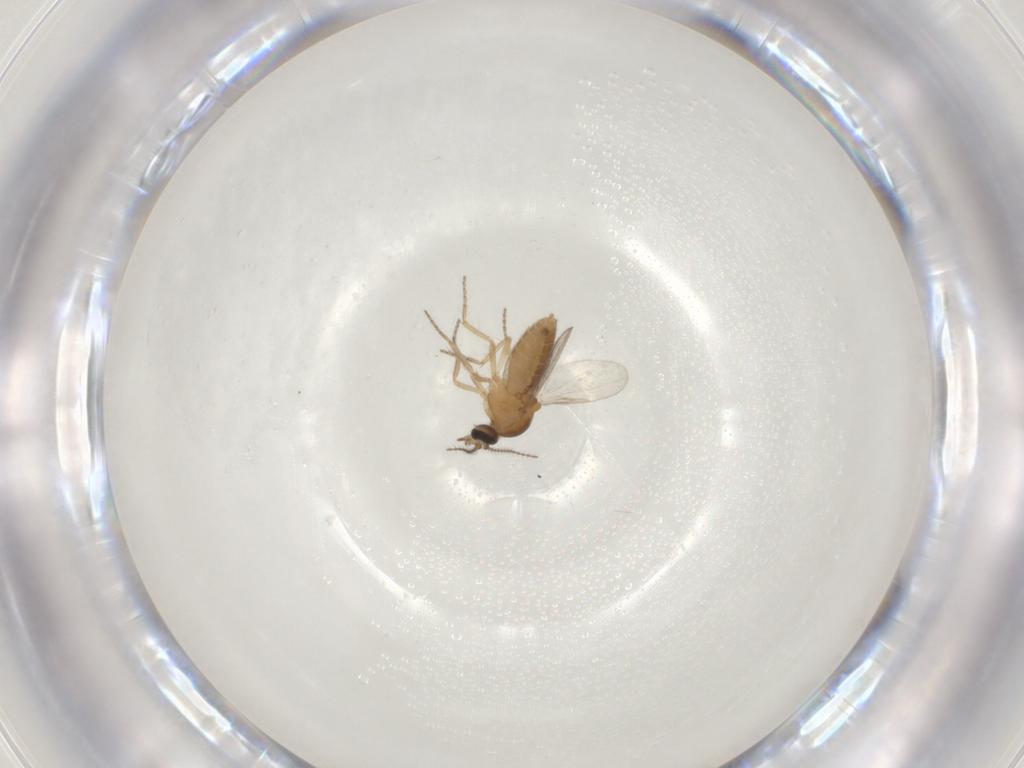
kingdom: Animalia
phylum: Arthropoda
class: Insecta
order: Diptera
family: Ceratopogonidae
